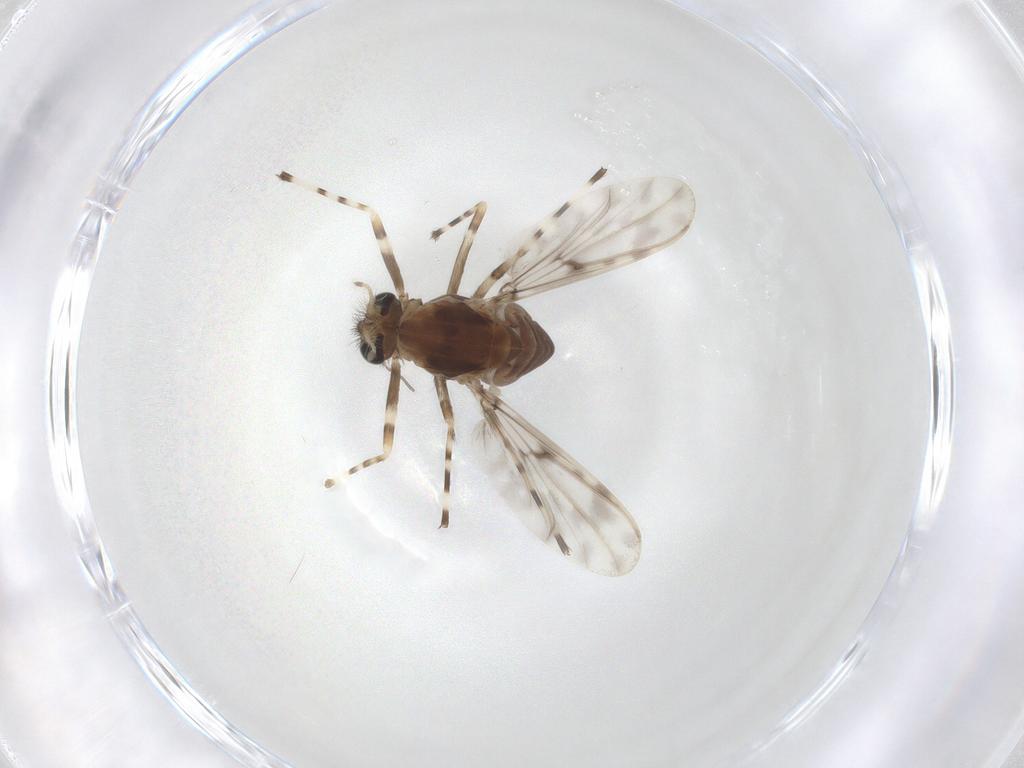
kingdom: Animalia
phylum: Arthropoda
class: Insecta
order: Diptera
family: Chironomidae
